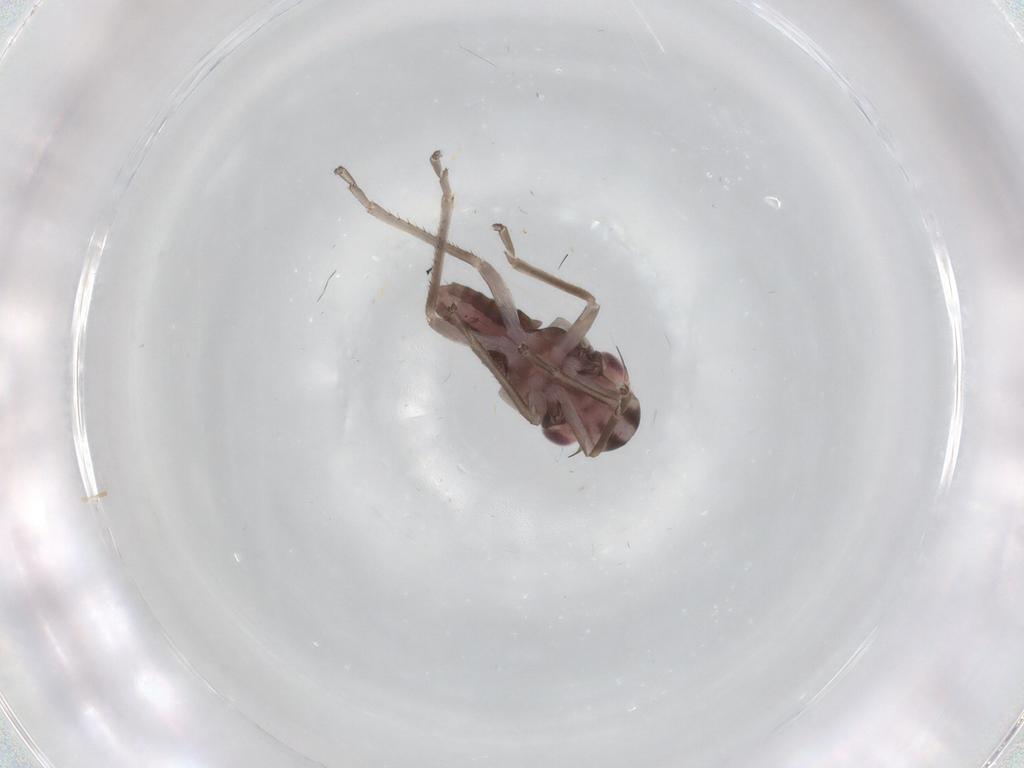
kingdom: Animalia
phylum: Arthropoda
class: Insecta
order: Hemiptera
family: Cicadellidae
